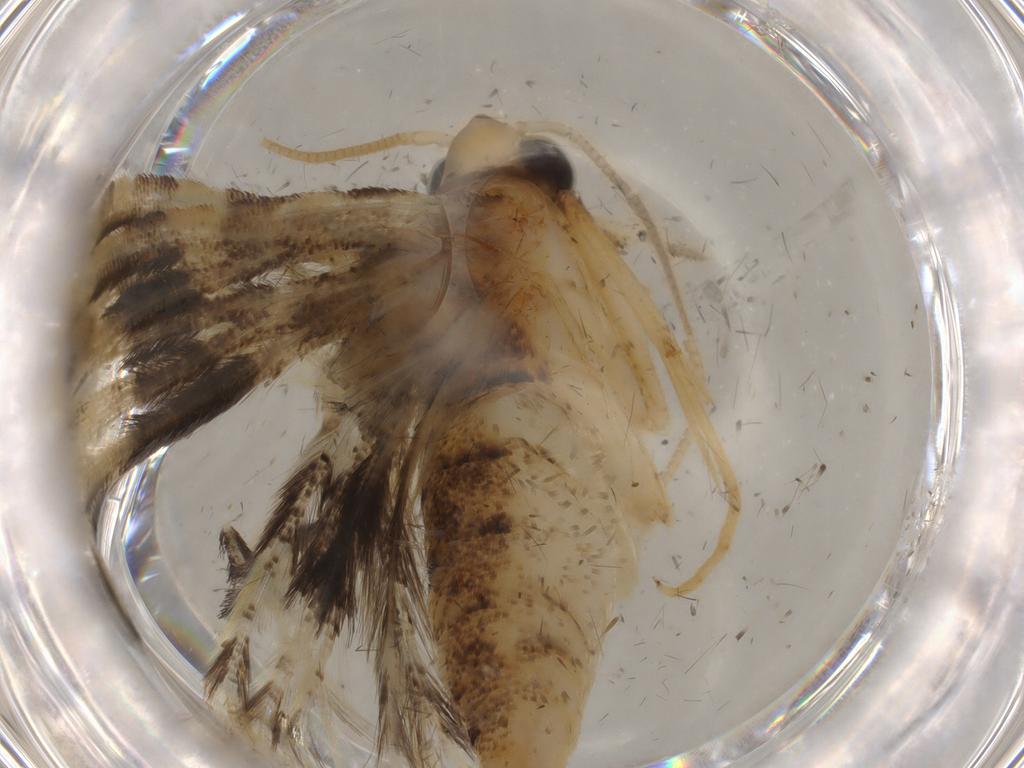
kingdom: Animalia
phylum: Arthropoda
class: Insecta
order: Lepidoptera
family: Gelechiidae
